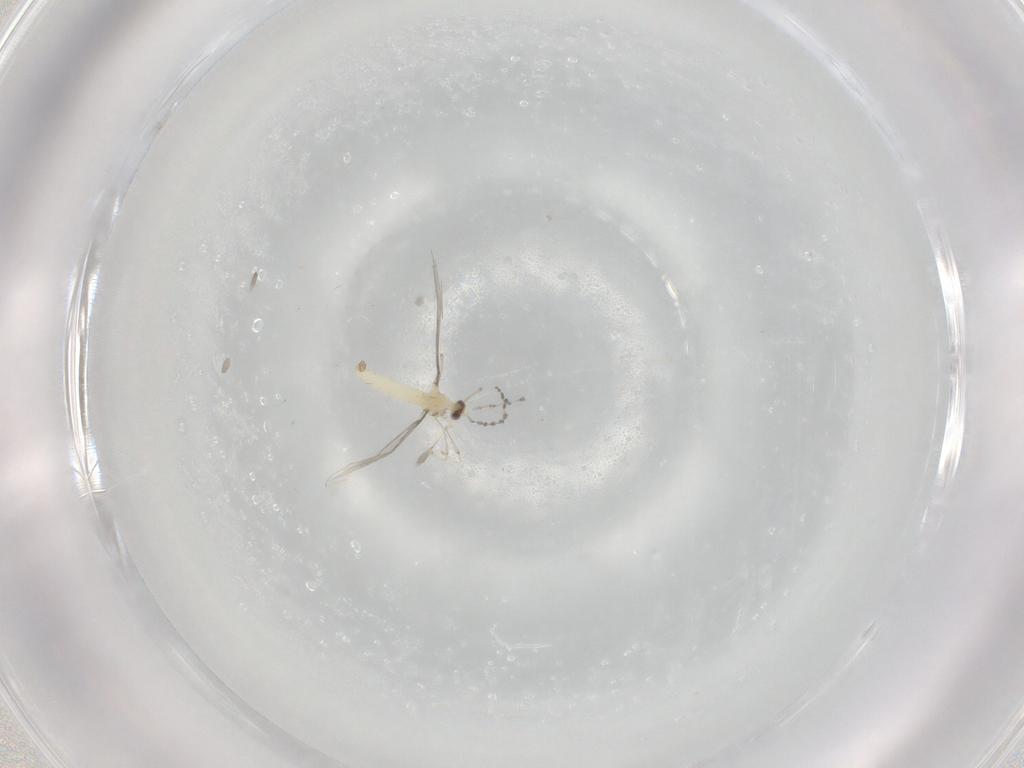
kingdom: Animalia
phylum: Arthropoda
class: Insecta
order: Diptera
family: Cecidomyiidae
